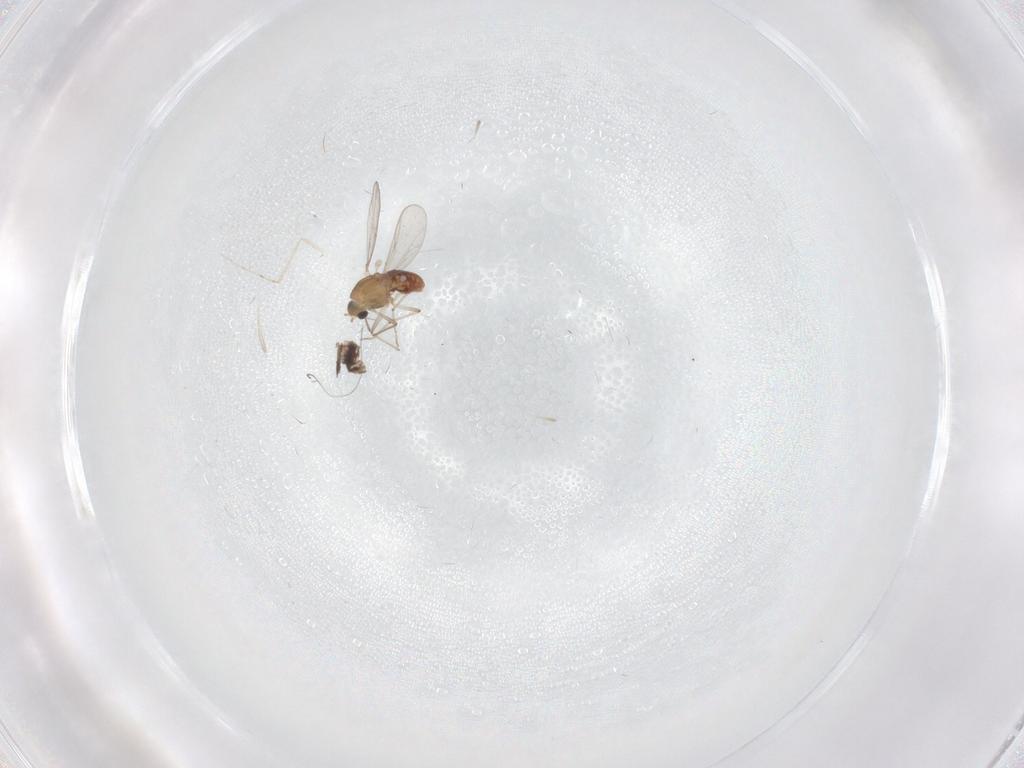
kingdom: Animalia
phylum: Arthropoda
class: Insecta
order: Diptera
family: Chironomidae
